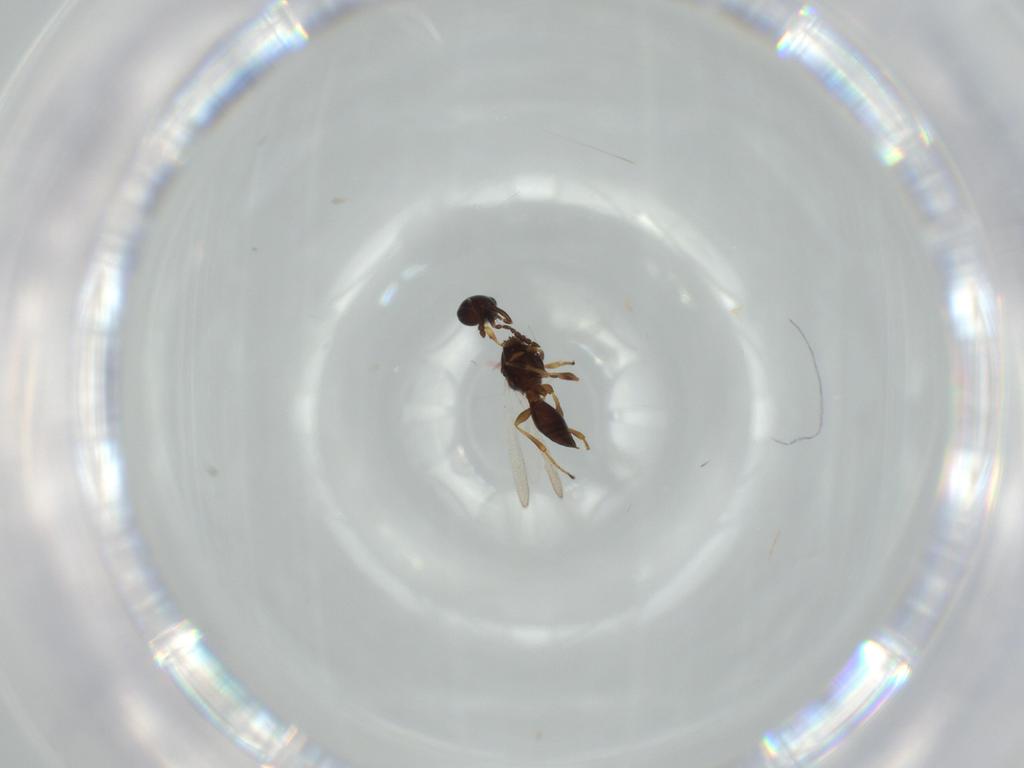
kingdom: Animalia
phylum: Arthropoda
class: Insecta
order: Hymenoptera
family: Platygastridae
